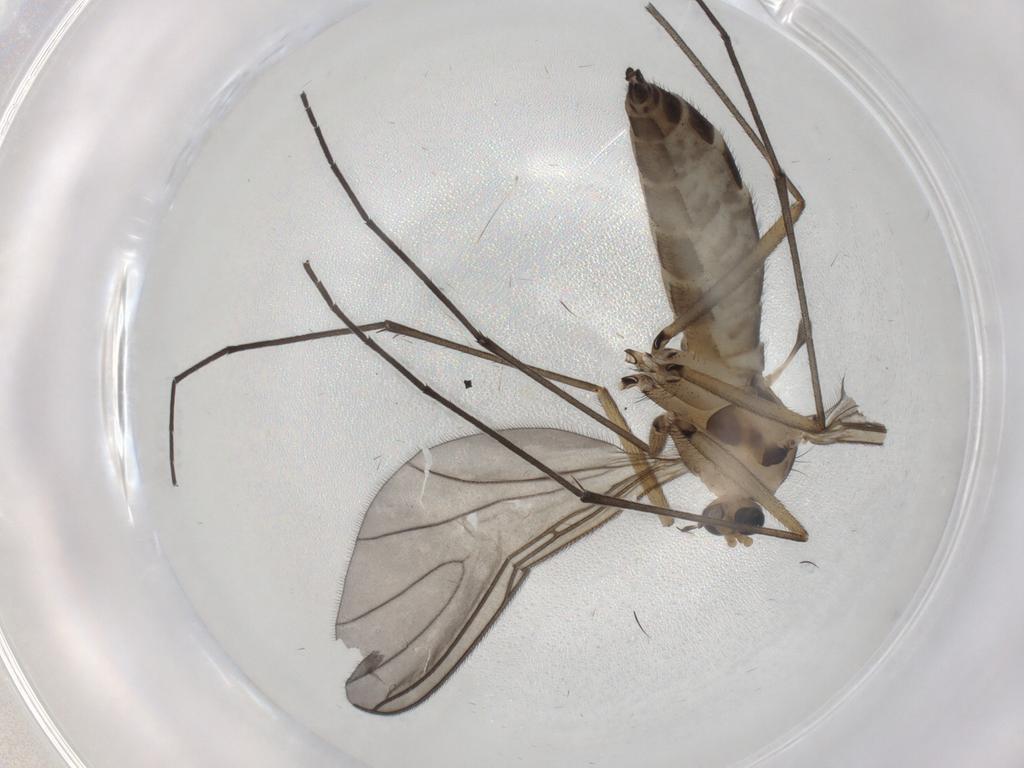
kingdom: Animalia
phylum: Arthropoda
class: Insecta
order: Diptera
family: Sciaridae
